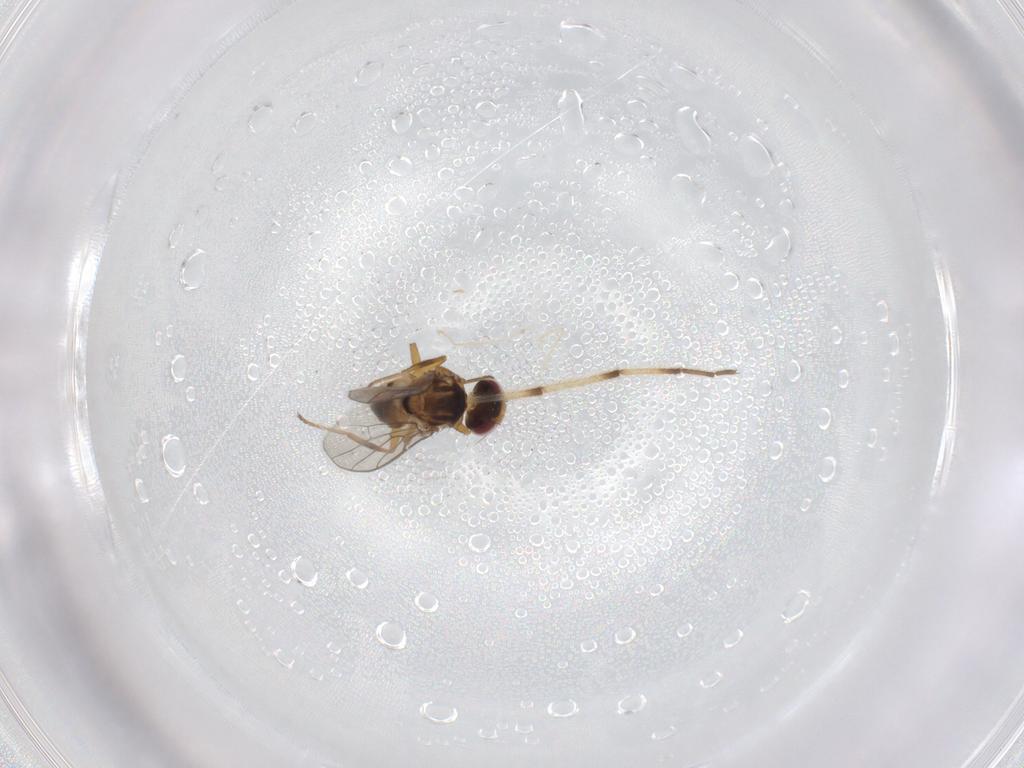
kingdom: Animalia
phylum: Arthropoda
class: Insecta
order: Diptera
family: Chloropidae
